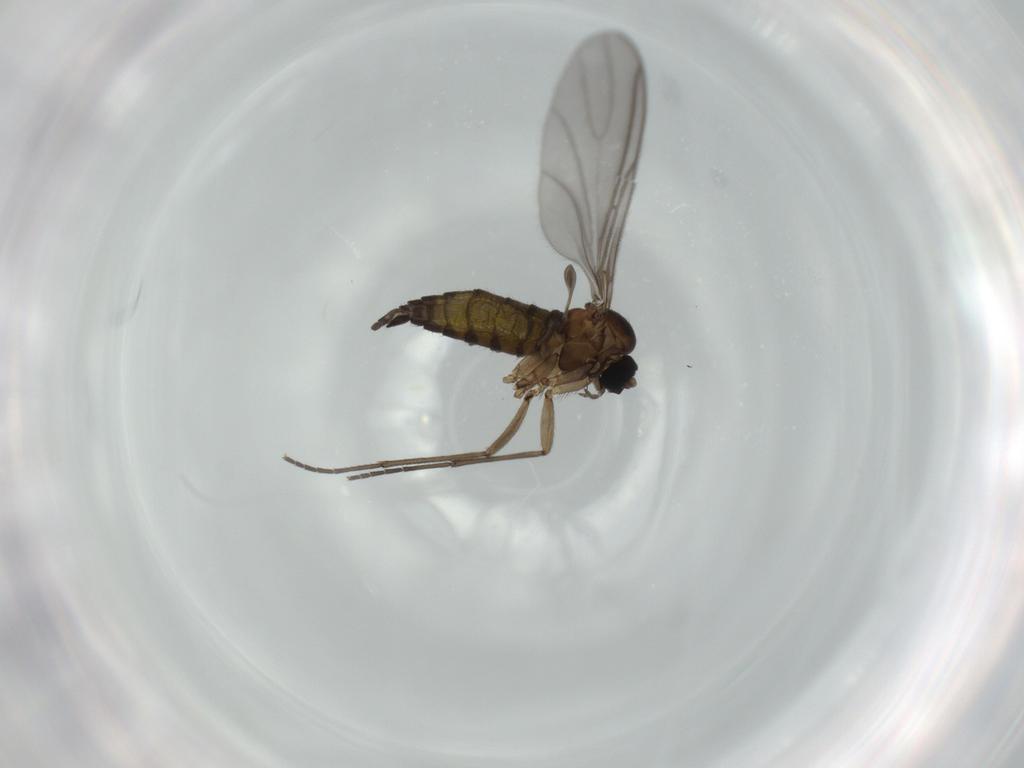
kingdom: Animalia
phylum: Arthropoda
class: Insecta
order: Diptera
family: Sciaridae
